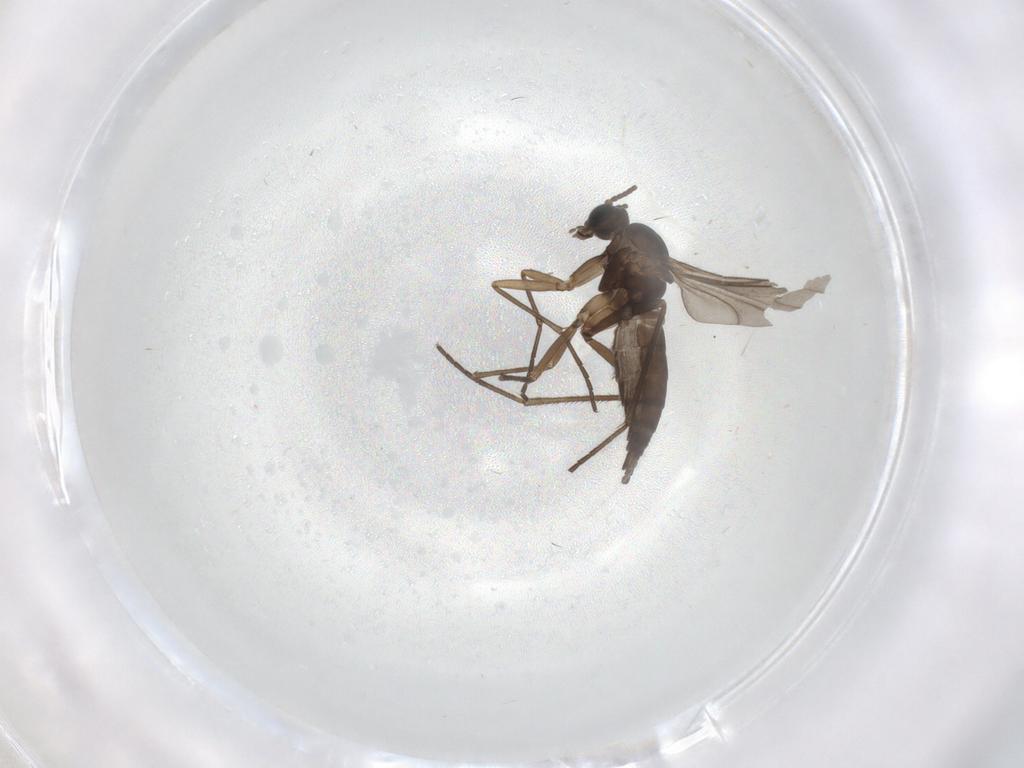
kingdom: Animalia
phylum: Arthropoda
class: Insecta
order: Diptera
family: Sciaridae
